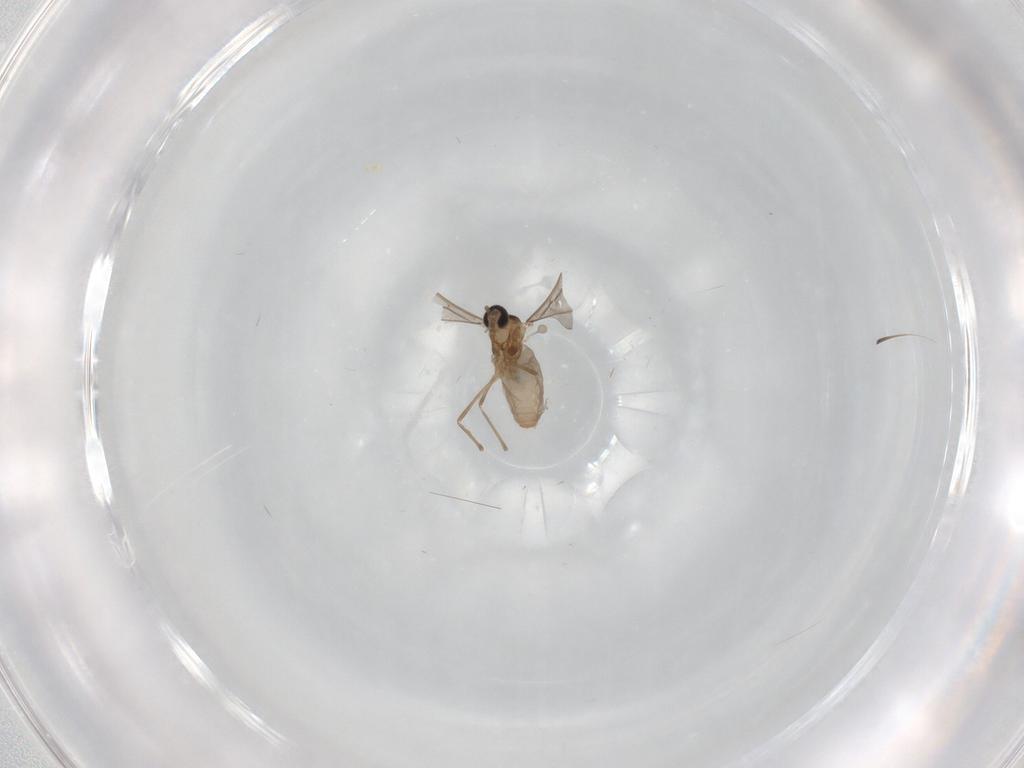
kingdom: Animalia
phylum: Arthropoda
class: Insecta
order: Diptera
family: Cecidomyiidae
